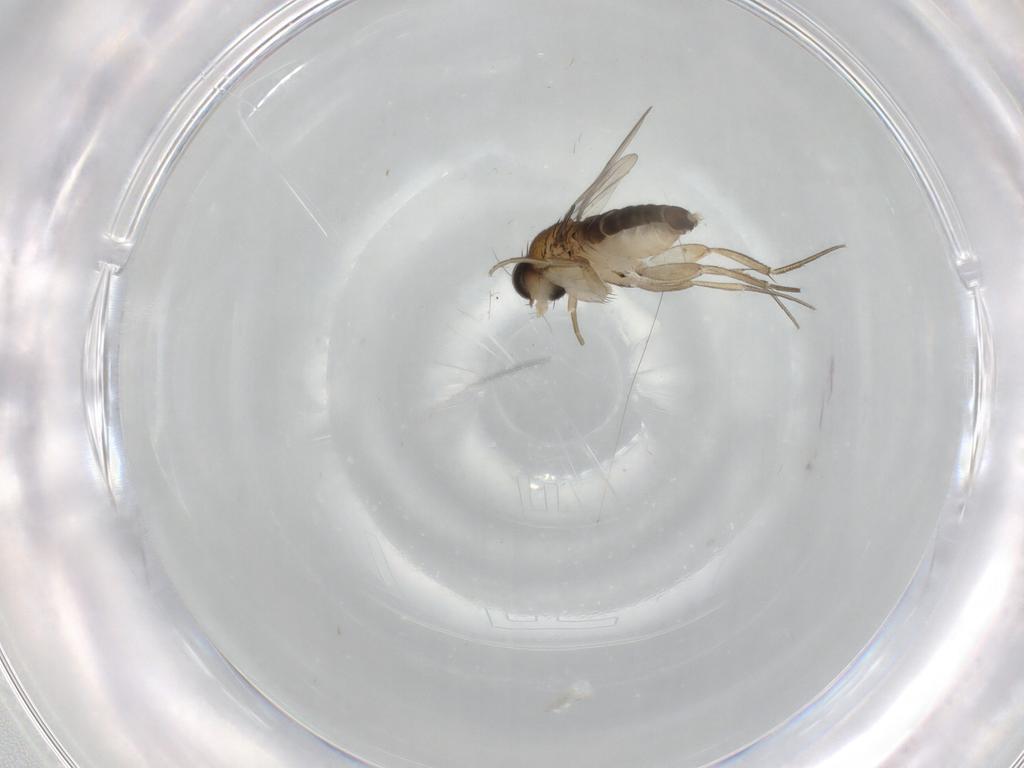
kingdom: Animalia
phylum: Arthropoda
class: Insecta
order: Diptera
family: Phoridae
